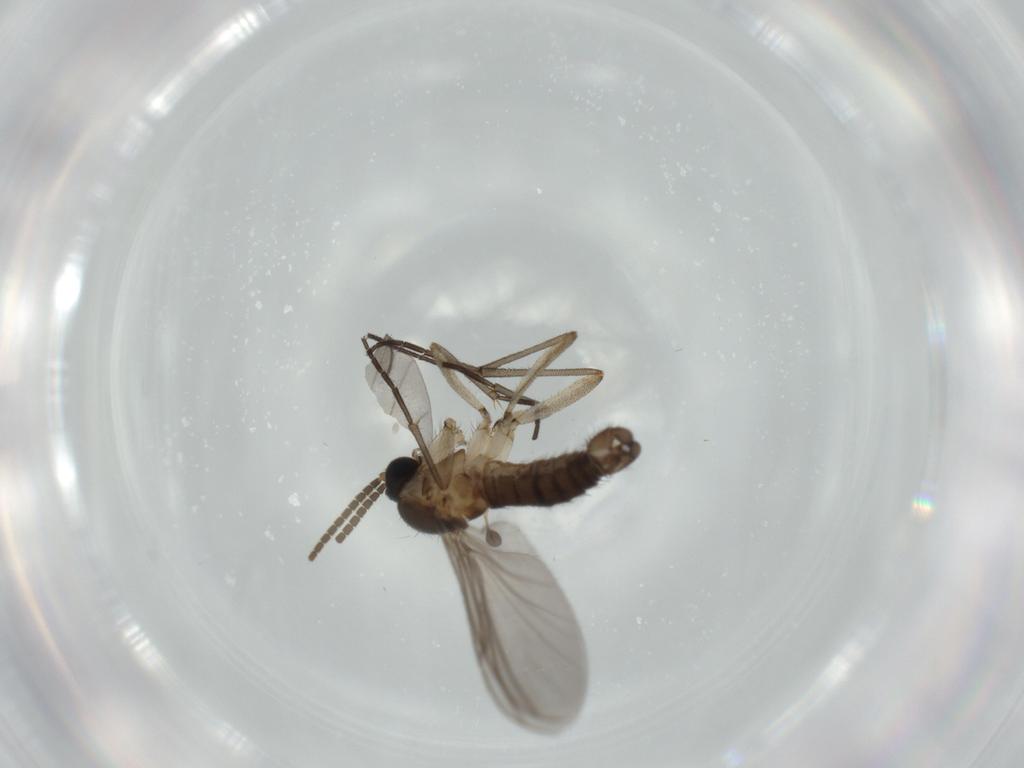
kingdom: Animalia
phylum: Arthropoda
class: Insecta
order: Diptera
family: Sciaridae
